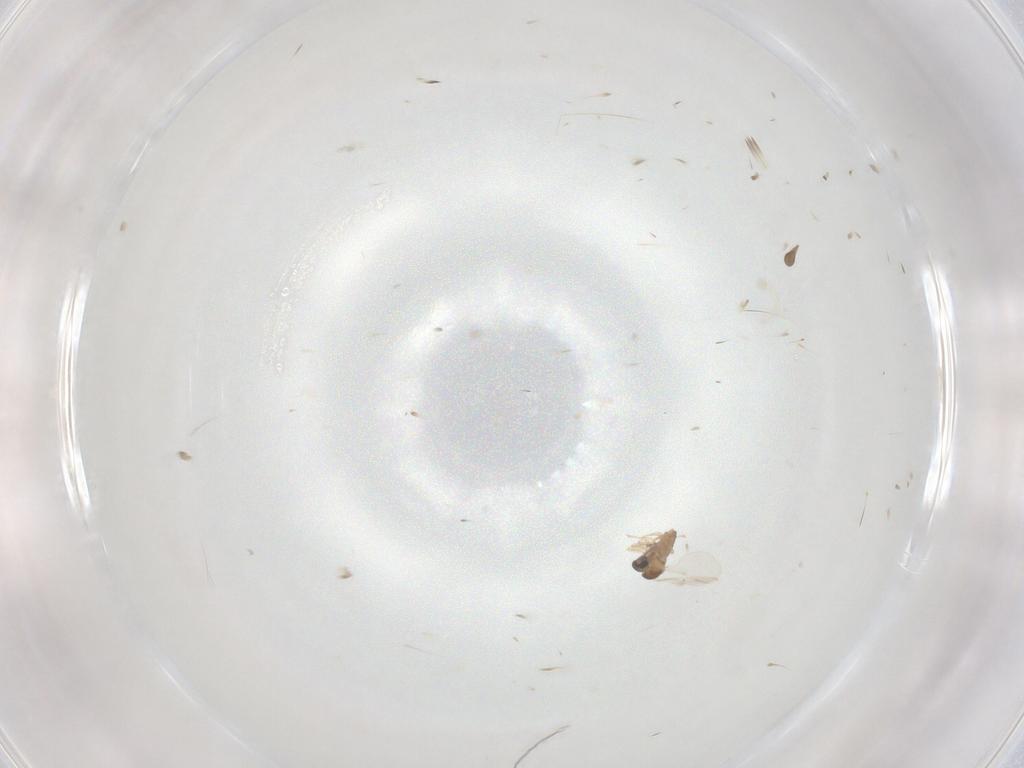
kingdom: Animalia
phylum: Arthropoda
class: Insecta
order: Diptera
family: Cecidomyiidae
